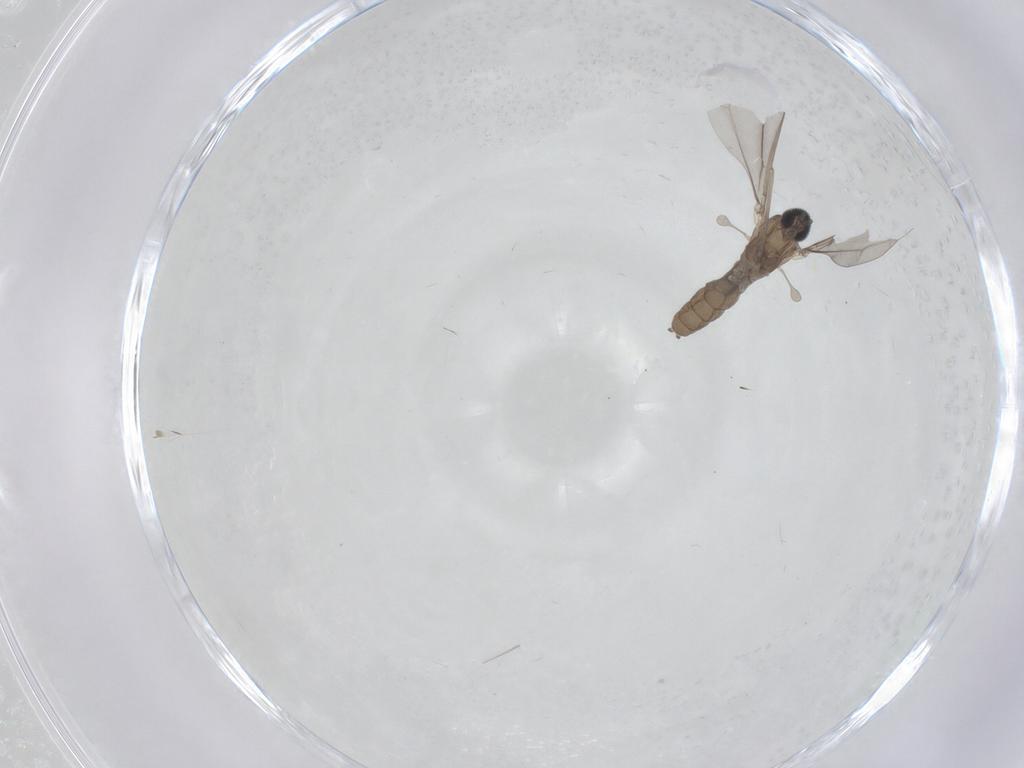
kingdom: Animalia
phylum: Arthropoda
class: Insecta
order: Diptera
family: Cecidomyiidae
